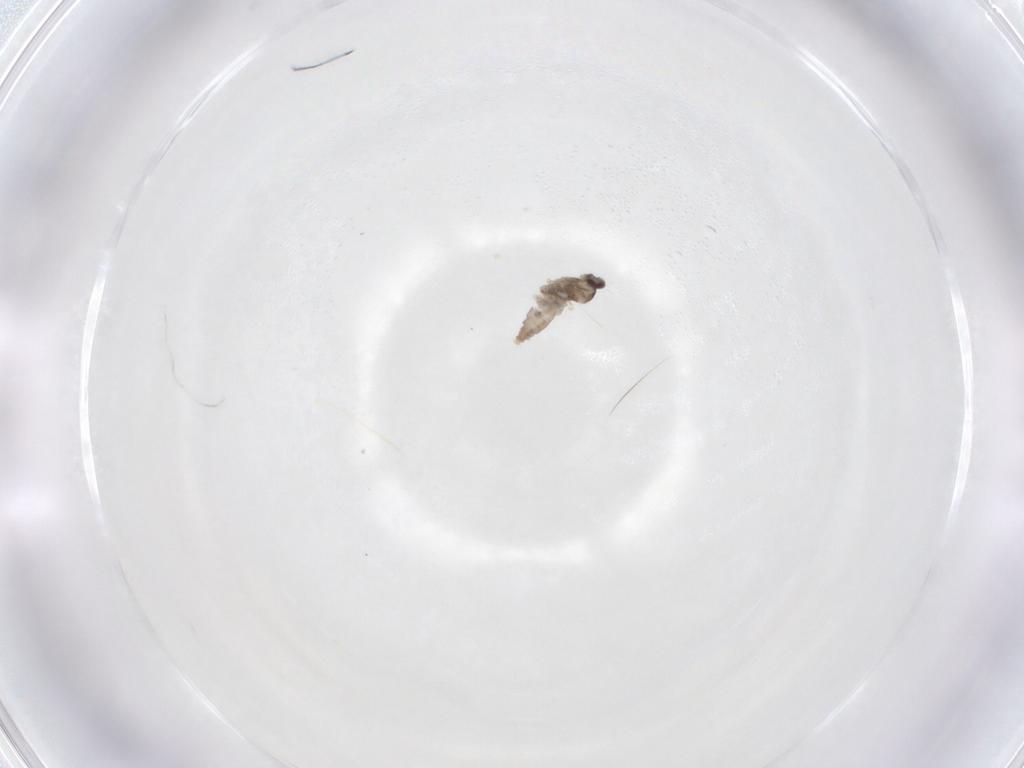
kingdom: Animalia
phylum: Arthropoda
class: Insecta
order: Diptera
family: Cecidomyiidae
